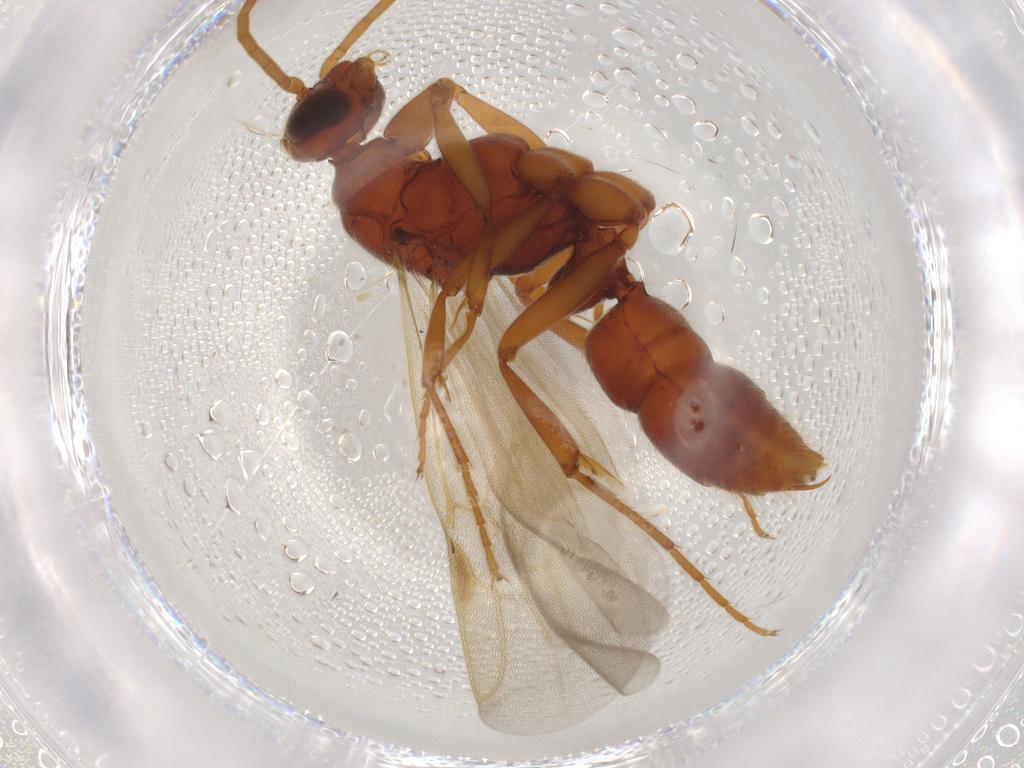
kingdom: Animalia
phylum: Arthropoda
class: Insecta
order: Hymenoptera
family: Formicidae
